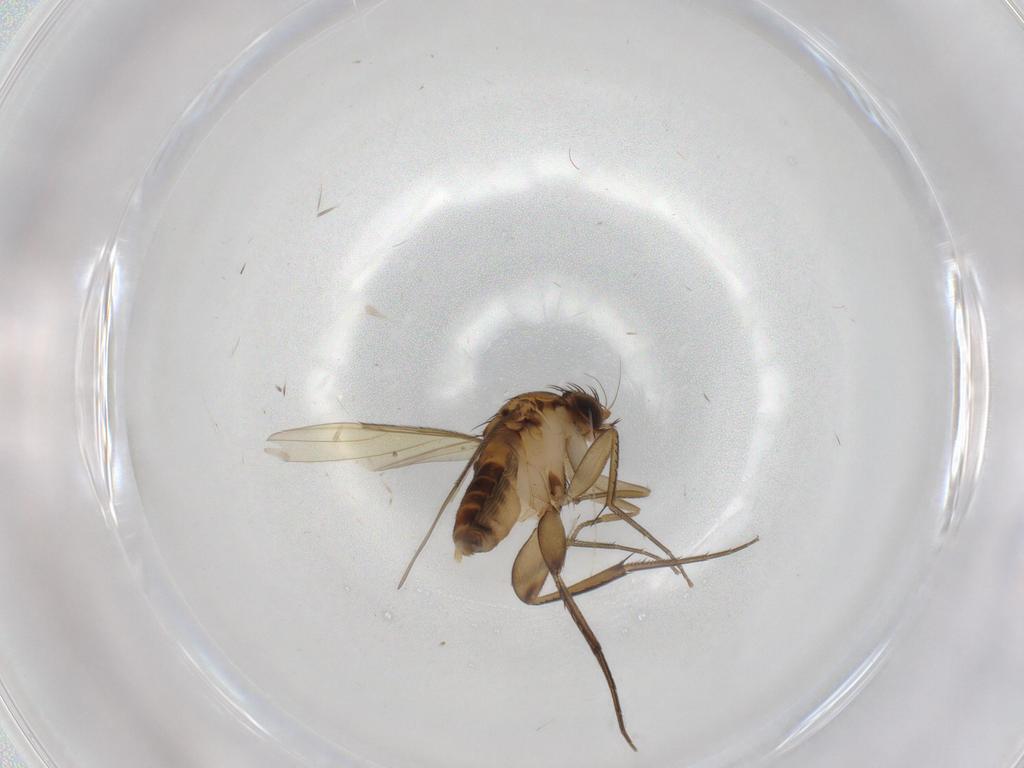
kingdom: Animalia
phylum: Arthropoda
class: Insecta
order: Diptera
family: Phoridae
